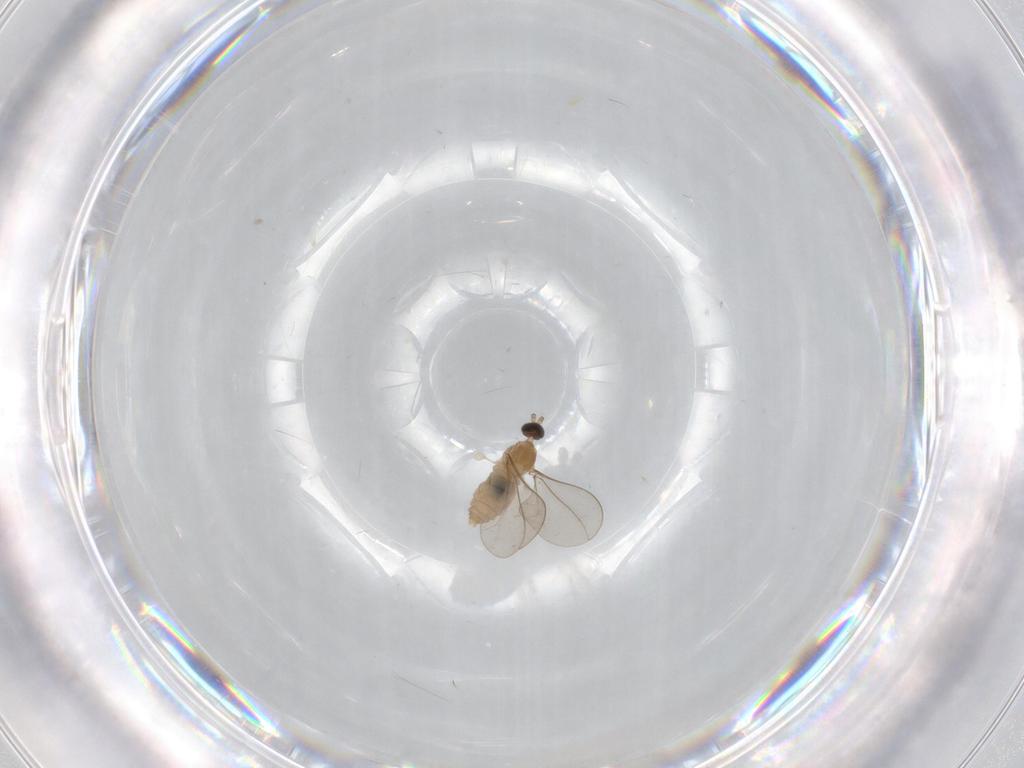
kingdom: Animalia
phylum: Arthropoda
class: Insecta
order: Diptera
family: Cecidomyiidae
